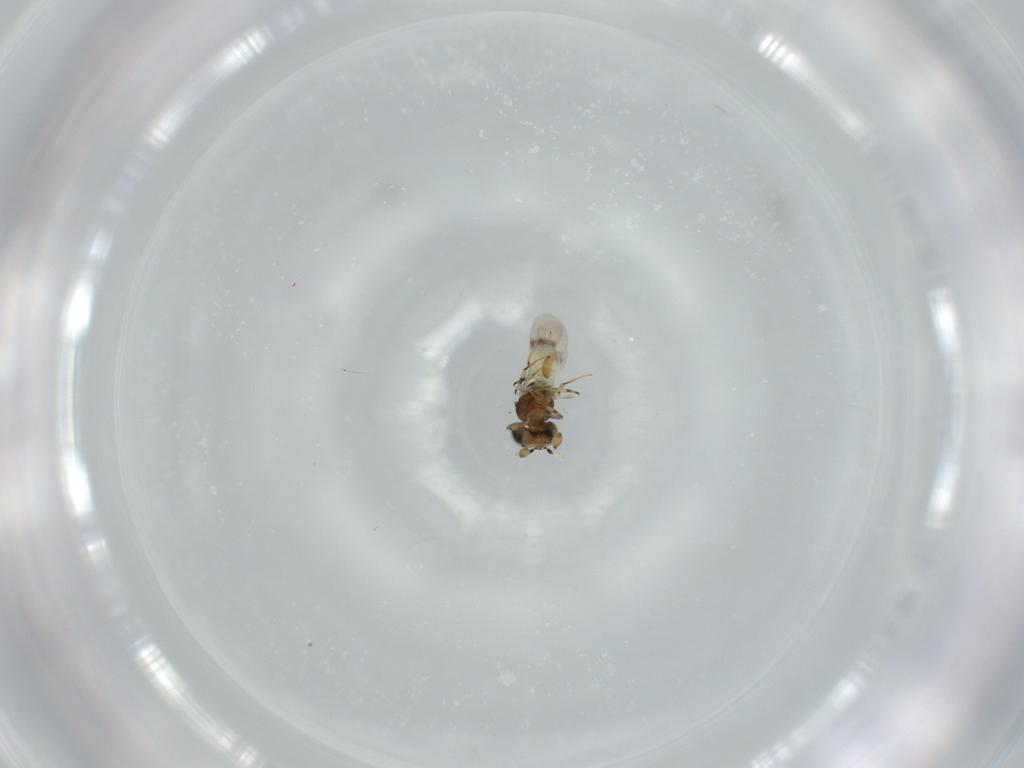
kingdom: Animalia
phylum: Arthropoda
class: Insecta
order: Hymenoptera
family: Scelionidae
